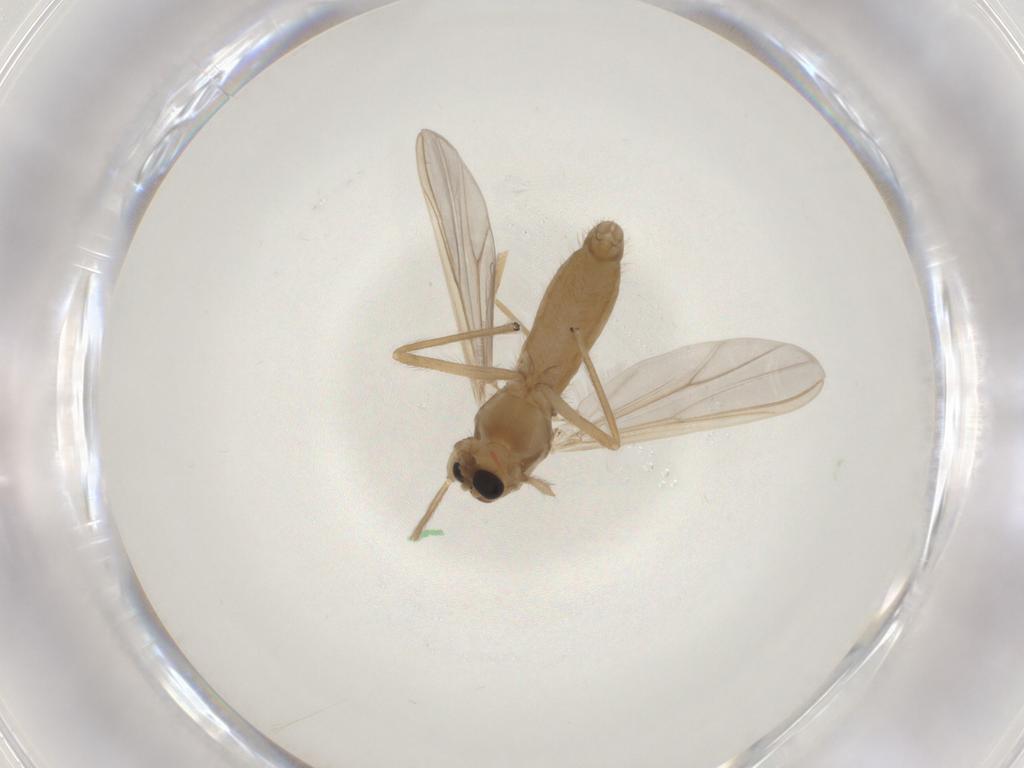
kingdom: Animalia
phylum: Arthropoda
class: Insecta
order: Diptera
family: Chironomidae
